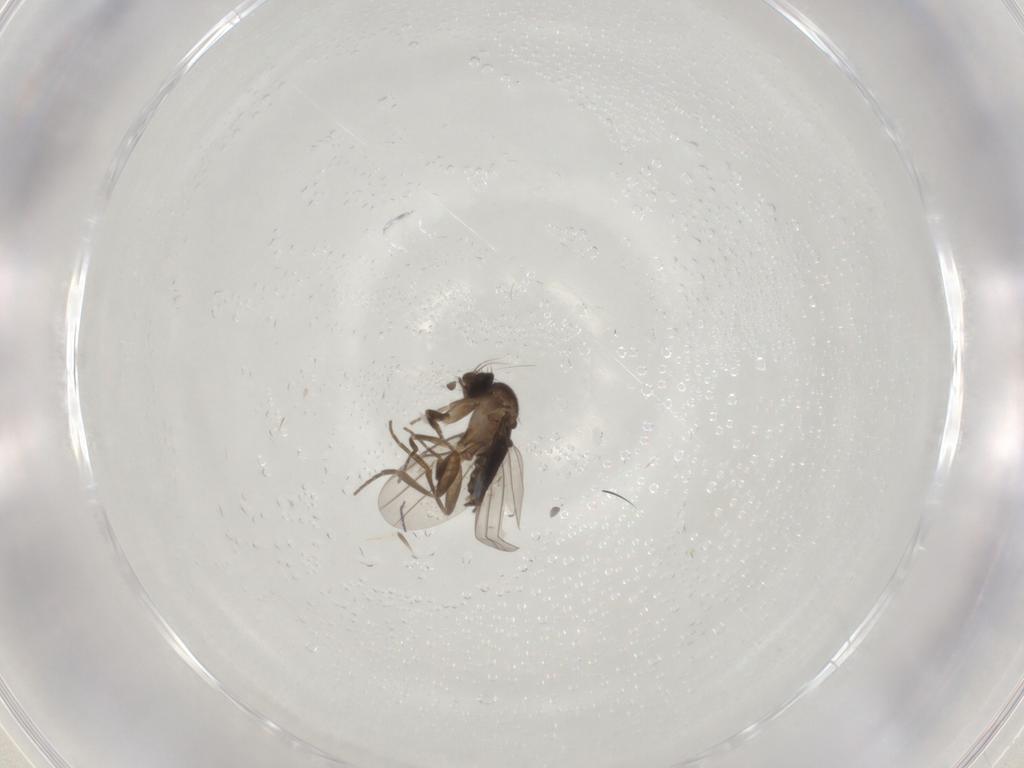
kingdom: Animalia
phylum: Arthropoda
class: Insecta
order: Diptera
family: Phoridae
